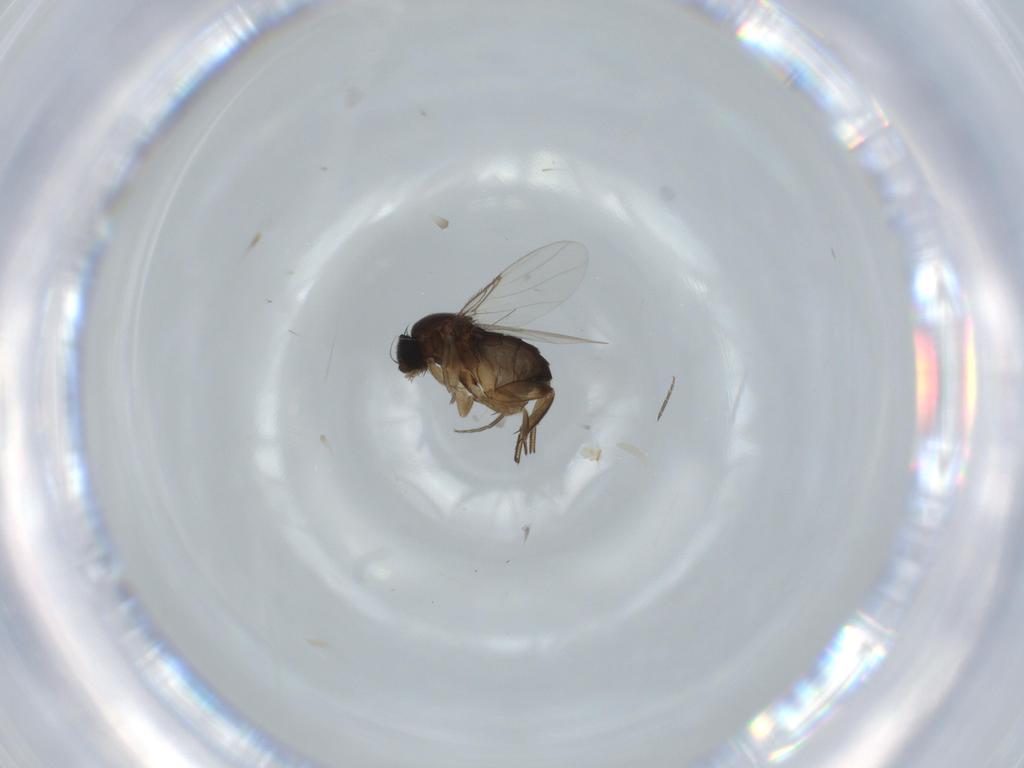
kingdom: Animalia
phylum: Arthropoda
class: Insecta
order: Diptera
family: Phoridae
